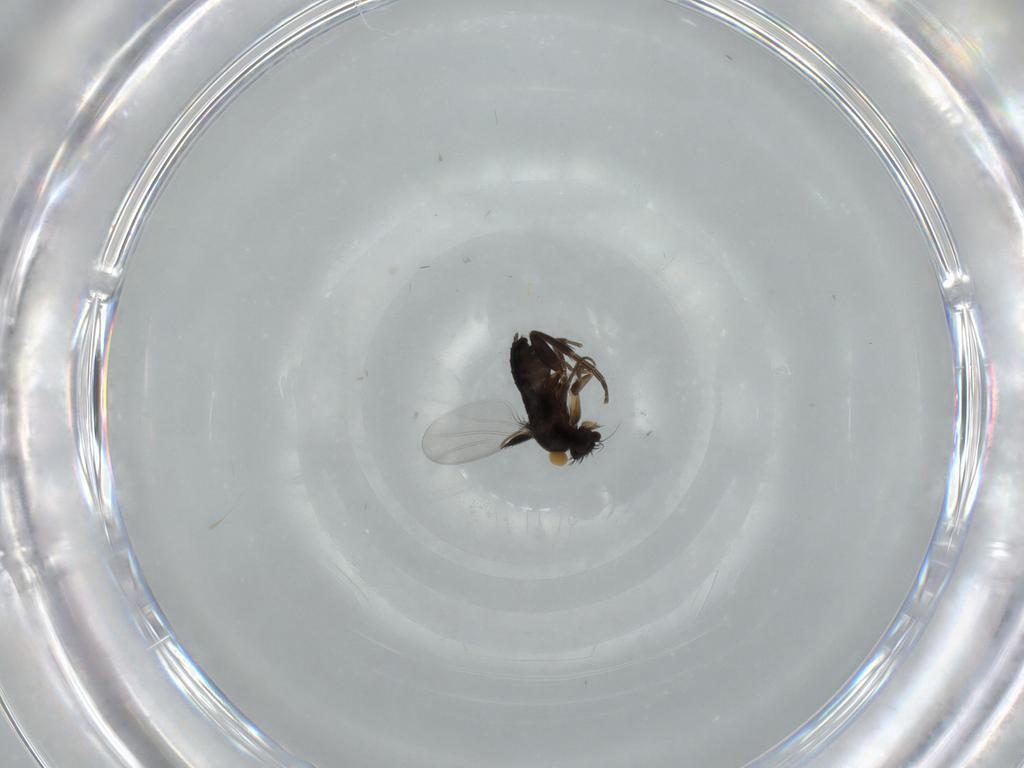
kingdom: Animalia
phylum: Arthropoda
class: Insecta
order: Diptera
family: Phoridae
